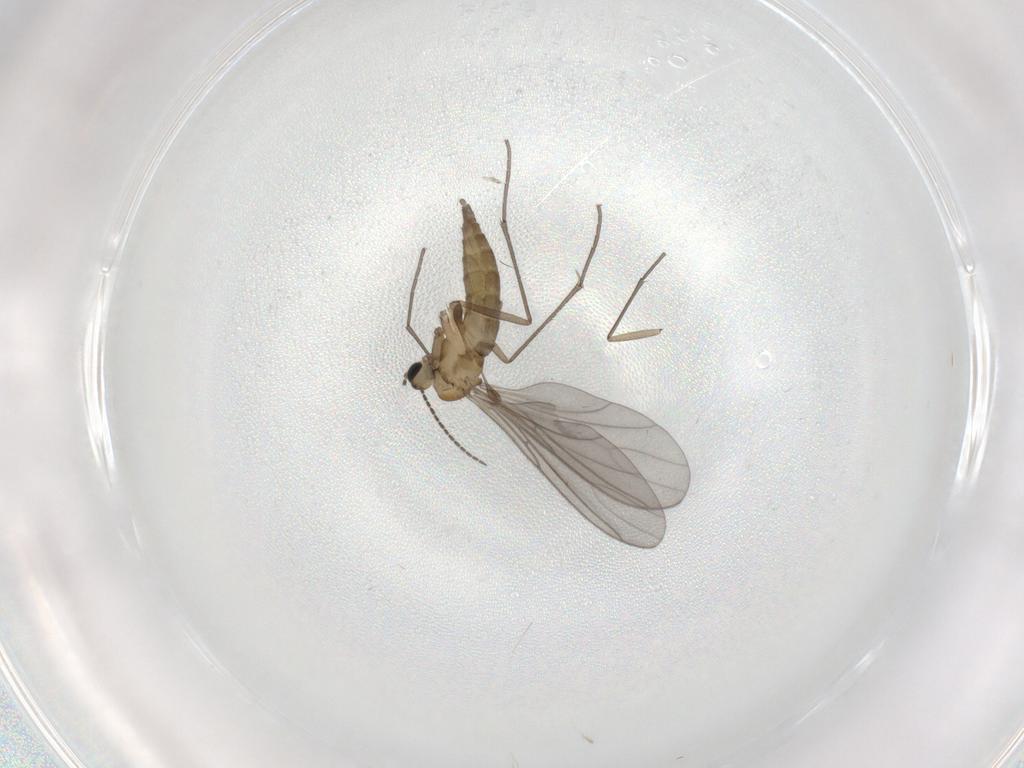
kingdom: Animalia
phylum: Arthropoda
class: Insecta
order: Diptera
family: Sciaridae
